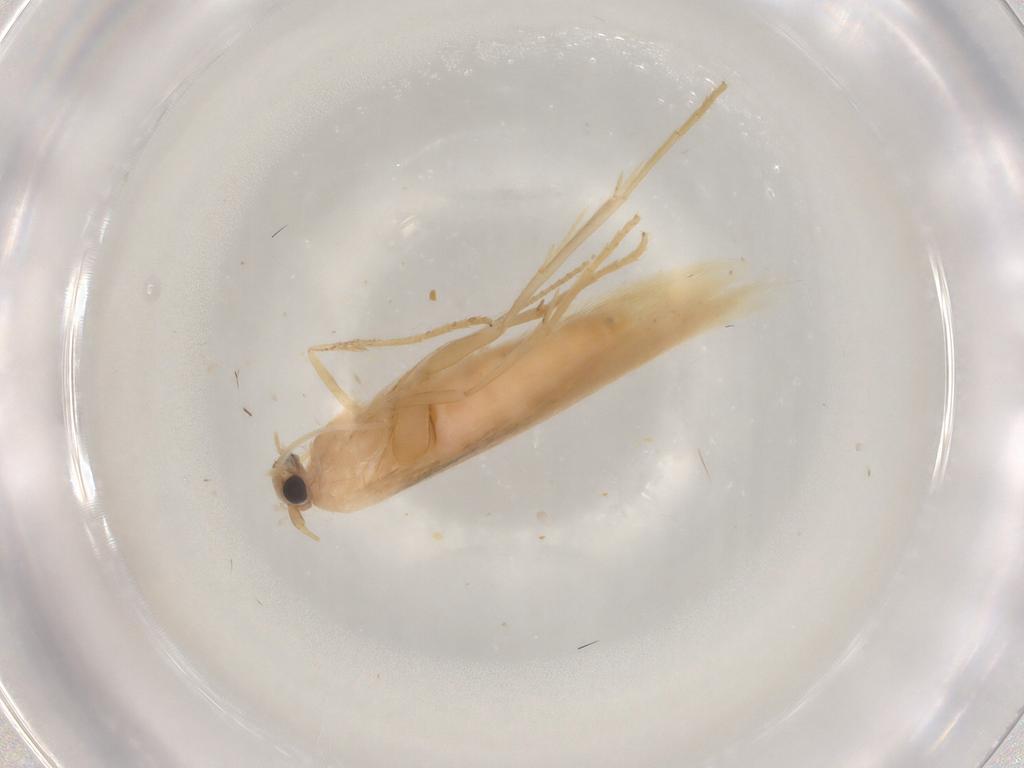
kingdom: Animalia
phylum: Arthropoda
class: Insecta
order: Lepidoptera
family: Bedelliidae
